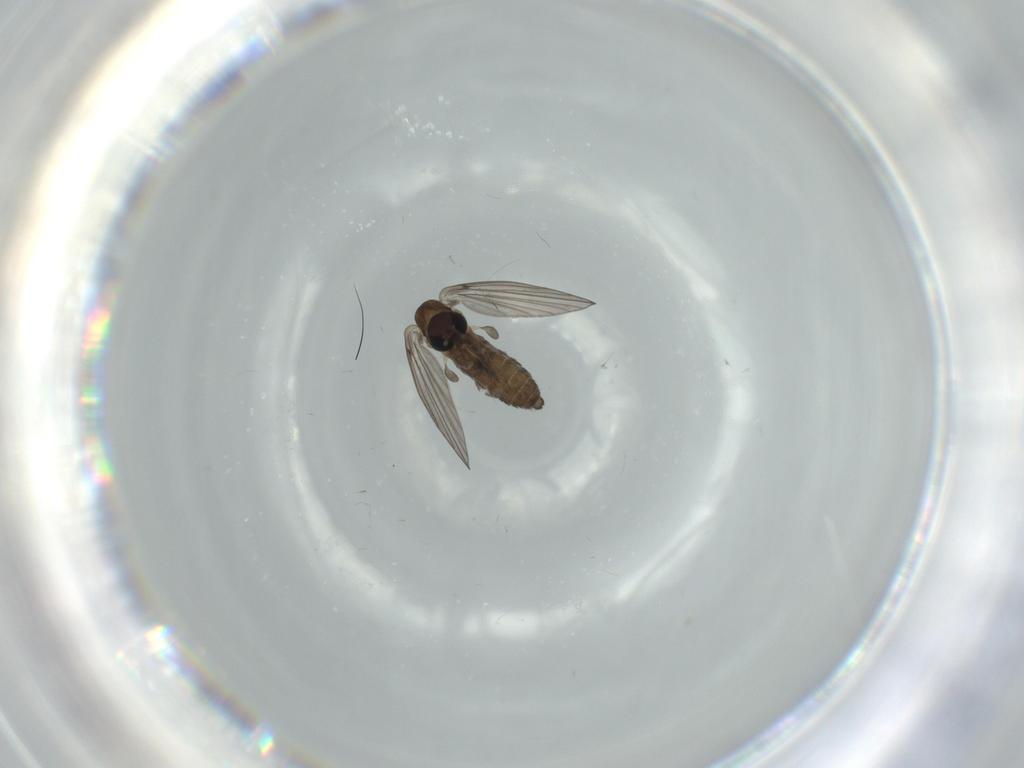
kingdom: Animalia
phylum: Arthropoda
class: Insecta
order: Diptera
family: Psychodidae
